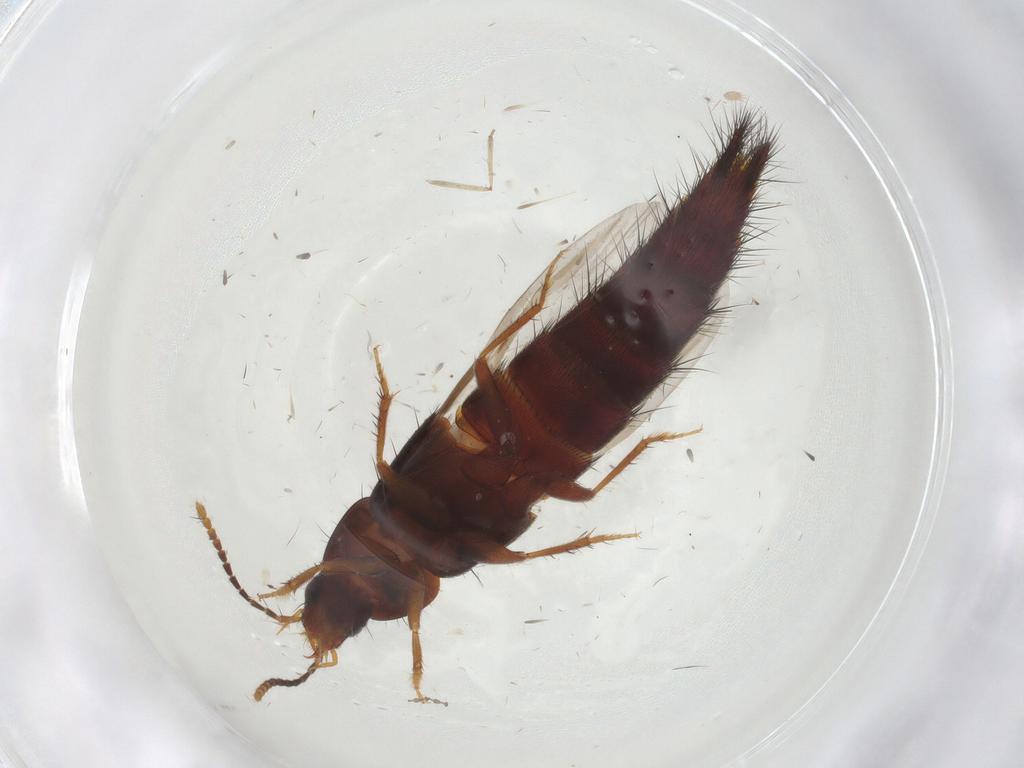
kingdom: Animalia
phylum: Arthropoda
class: Insecta
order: Coleoptera
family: Staphylinidae
